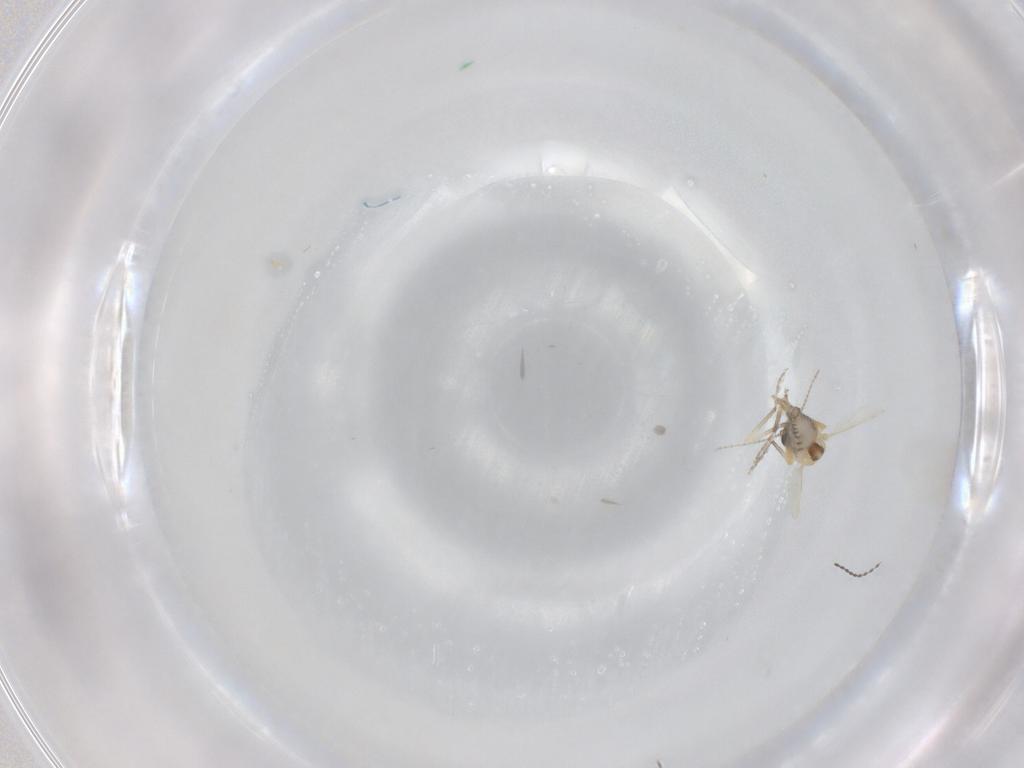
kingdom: Animalia
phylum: Arthropoda
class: Insecta
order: Diptera
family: Cecidomyiidae
